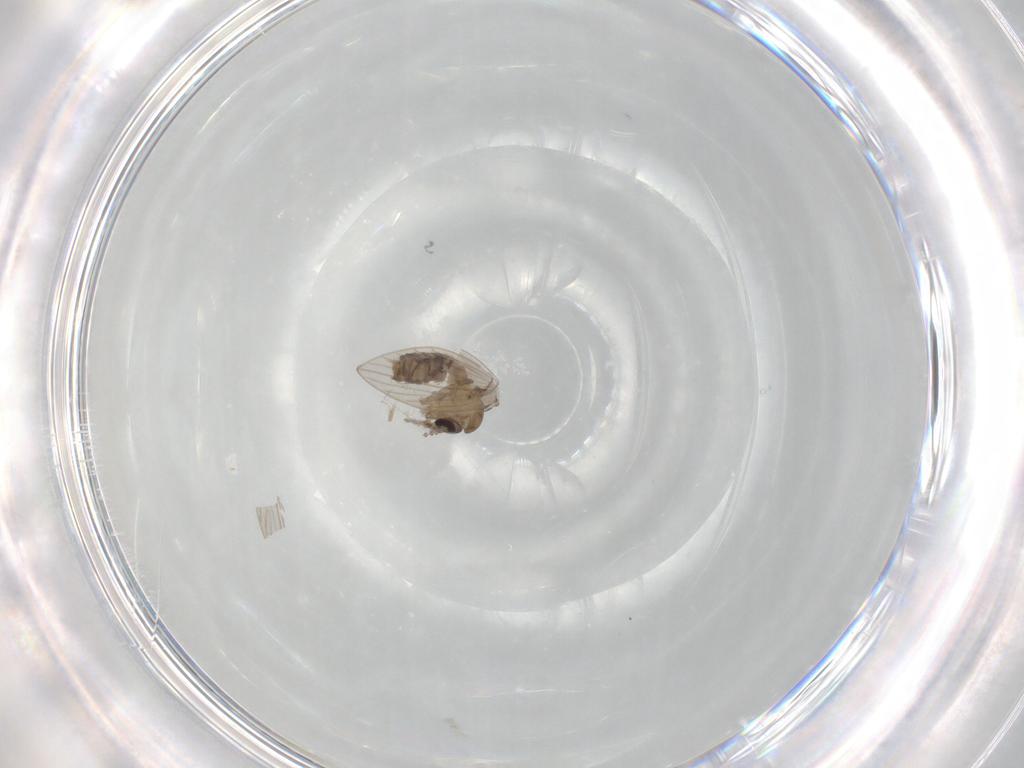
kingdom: Animalia
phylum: Arthropoda
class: Insecta
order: Diptera
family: Psychodidae
